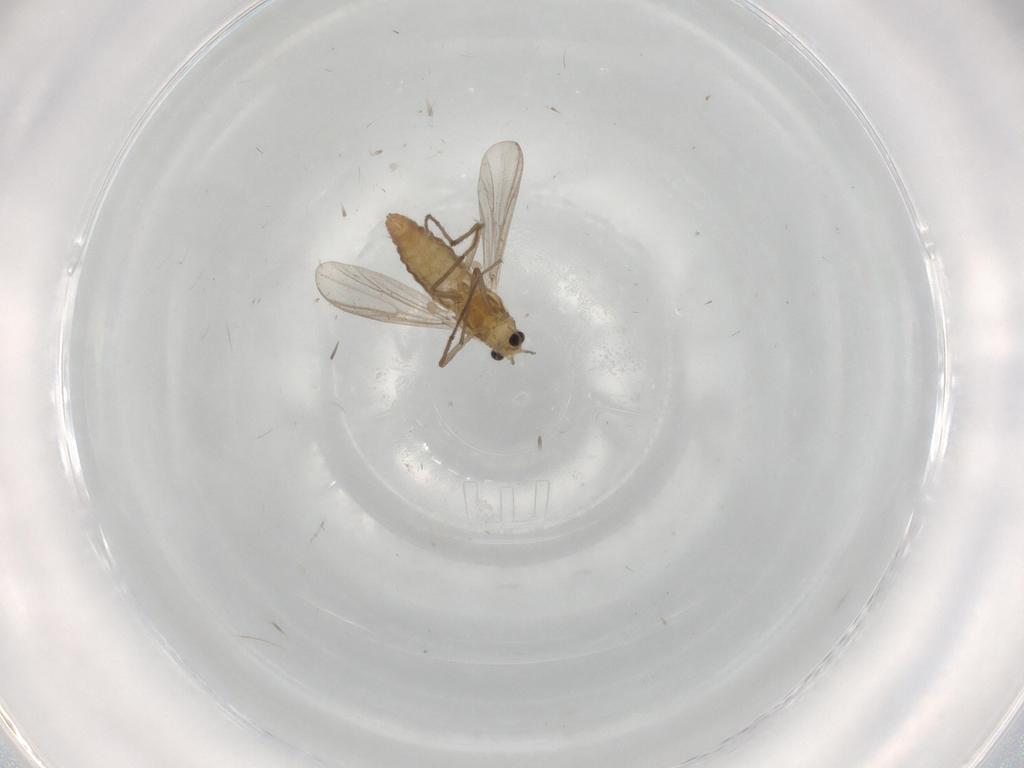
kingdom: Animalia
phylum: Arthropoda
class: Insecta
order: Diptera
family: Chironomidae
